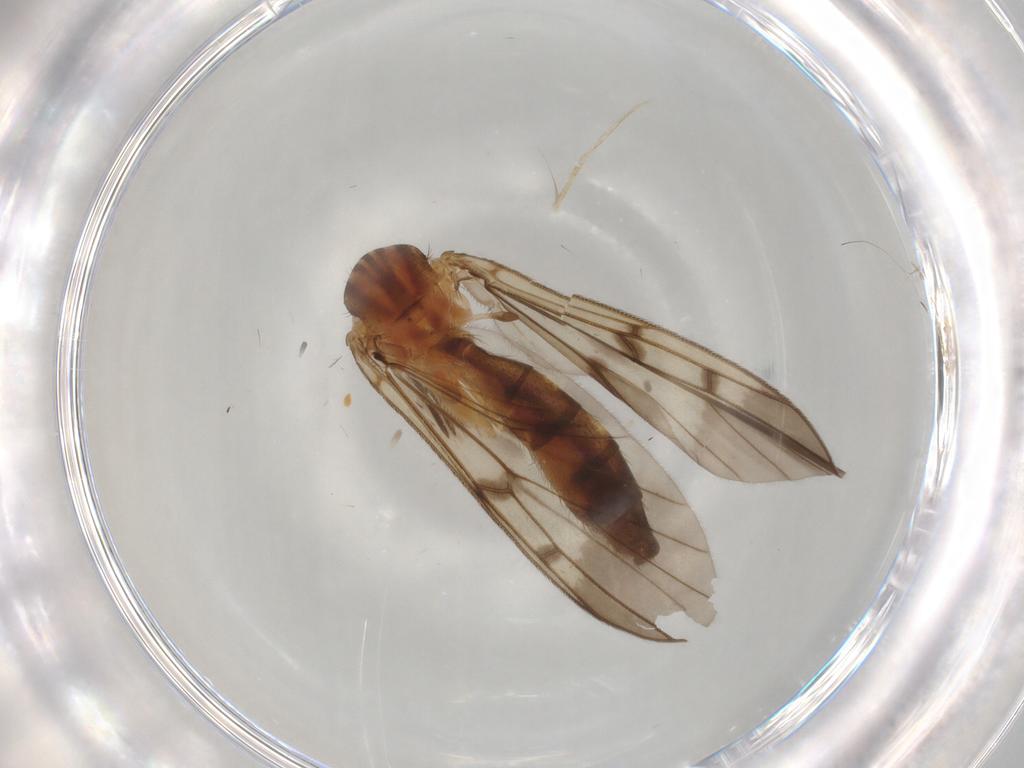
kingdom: Animalia
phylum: Arthropoda
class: Insecta
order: Diptera
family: Mycetophilidae
